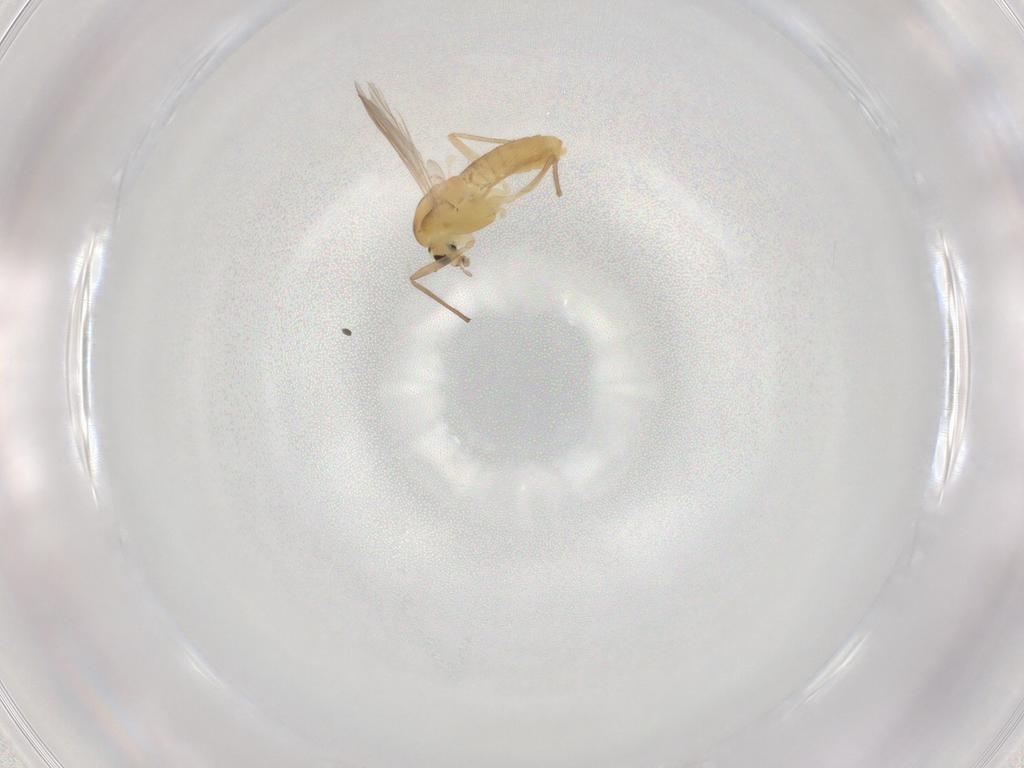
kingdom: Animalia
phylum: Arthropoda
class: Insecta
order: Diptera
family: Chironomidae
